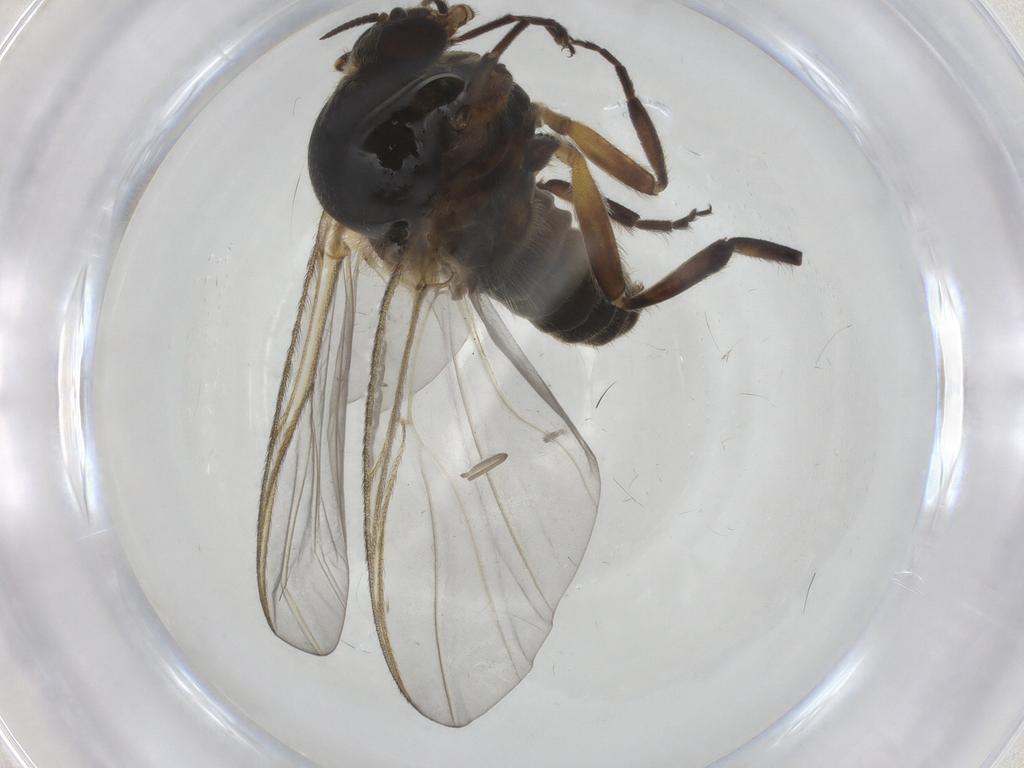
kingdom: Animalia
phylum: Arthropoda
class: Insecta
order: Diptera
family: Simuliidae
